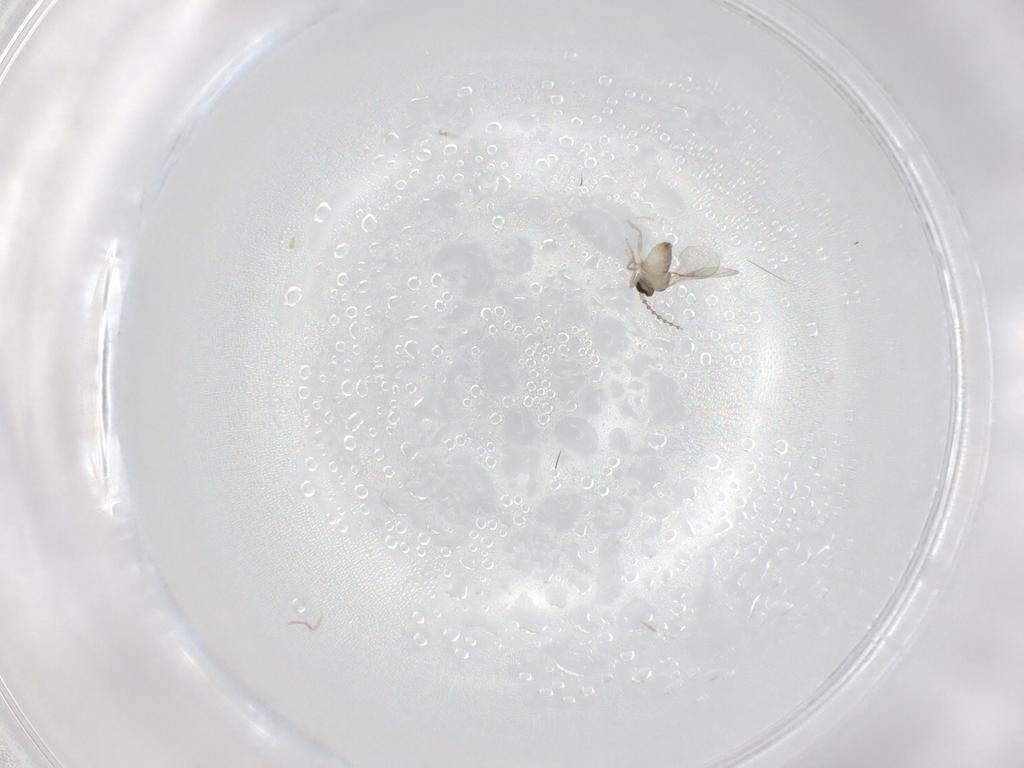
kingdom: Animalia
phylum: Arthropoda
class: Insecta
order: Diptera
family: Cecidomyiidae
